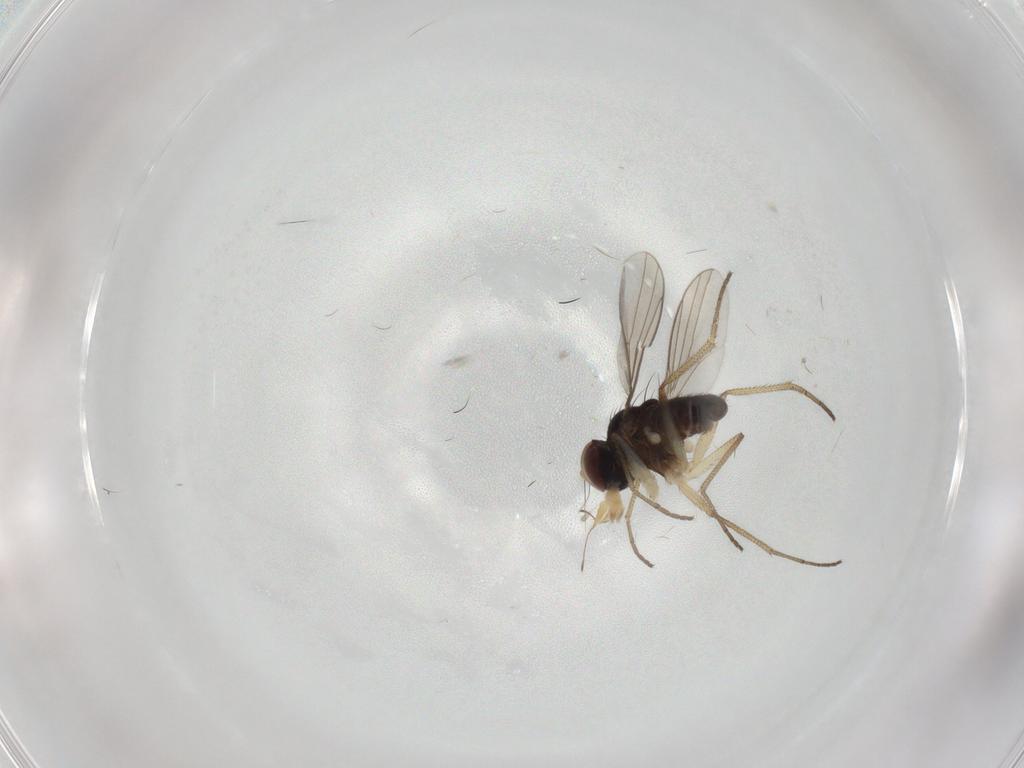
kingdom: Animalia
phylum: Arthropoda
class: Insecta
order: Diptera
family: Dolichopodidae
